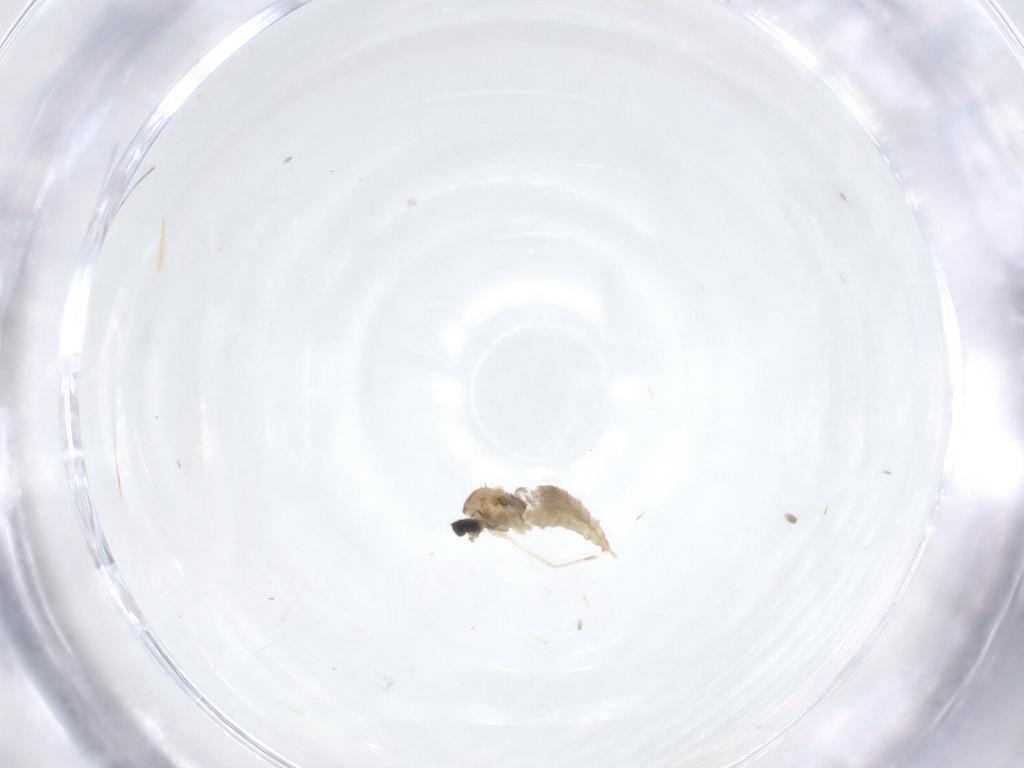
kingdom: Animalia
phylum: Arthropoda
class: Insecta
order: Diptera
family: Cecidomyiidae
